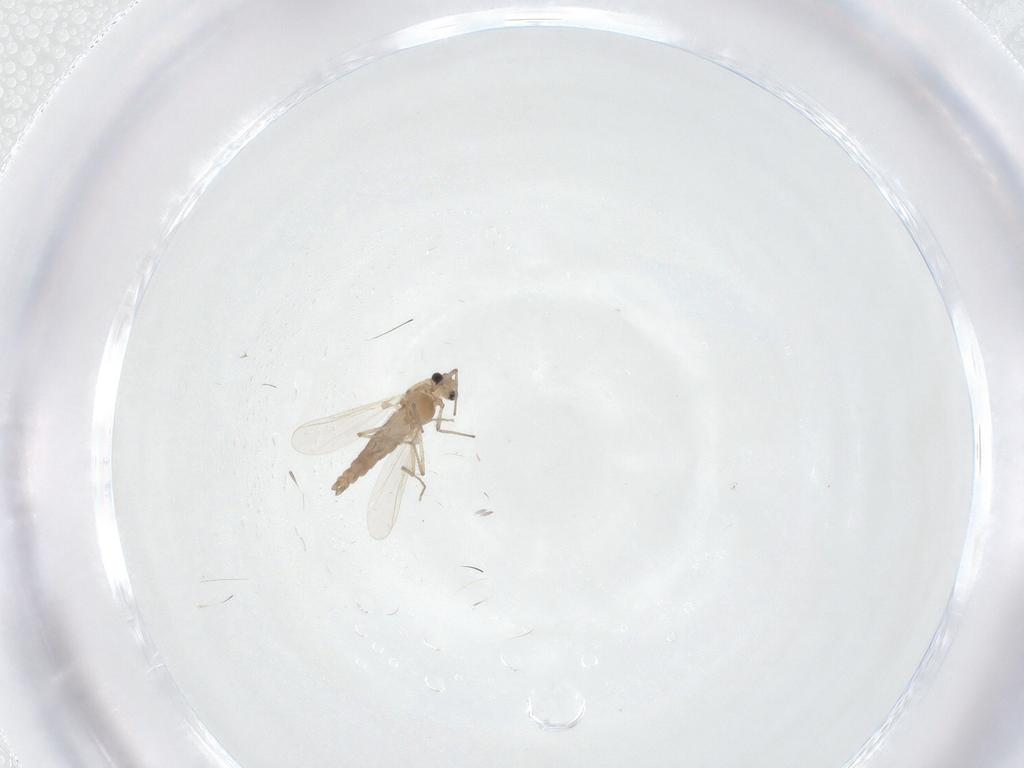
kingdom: Animalia
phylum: Arthropoda
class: Insecta
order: Diptera
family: Chironomidae
